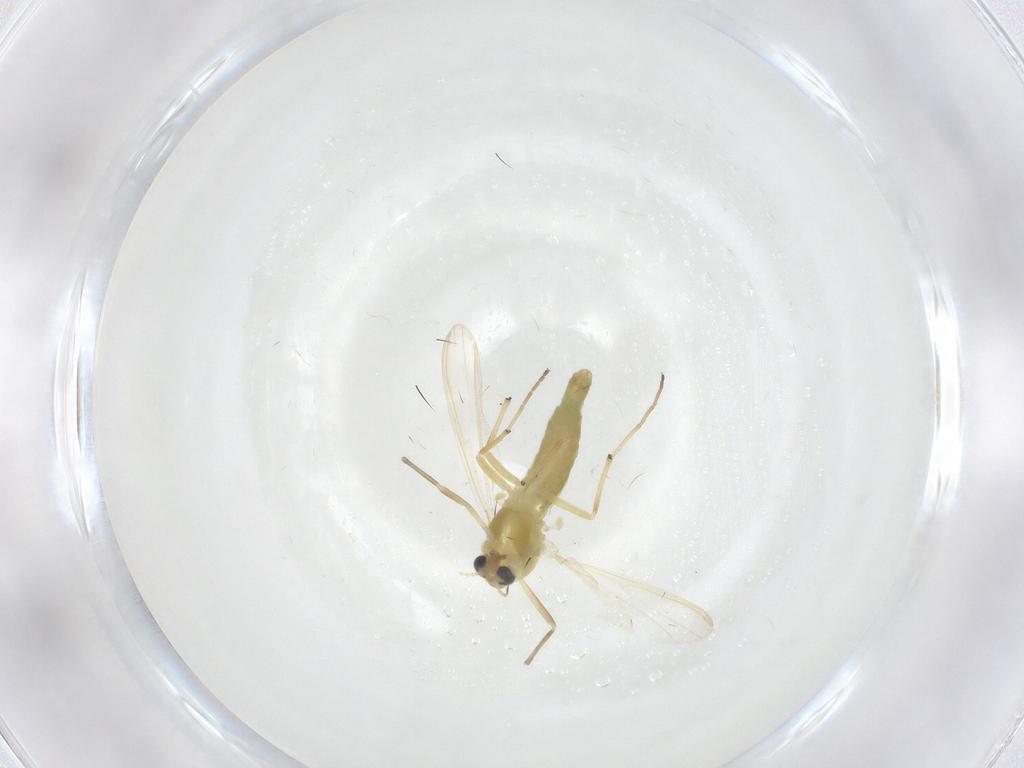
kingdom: Animalia
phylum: Arthropoda
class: Insecta
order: Diptera
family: Chironomidae
